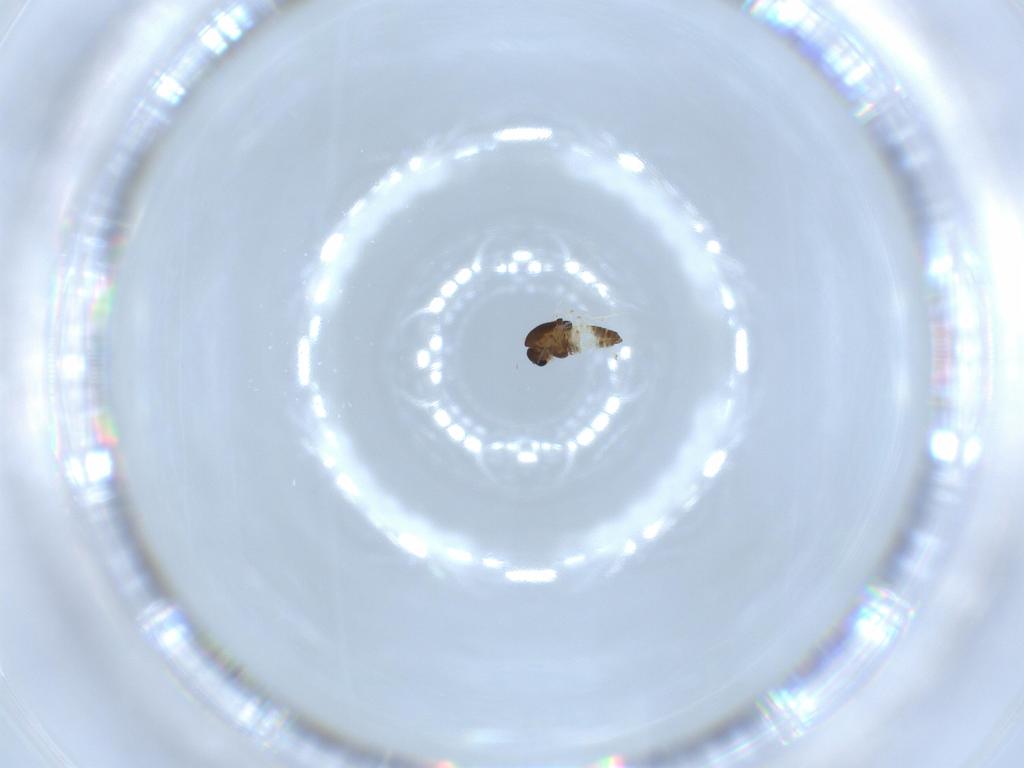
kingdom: Animalia
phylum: Arthropoda
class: Insecta
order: Diptera
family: Chironomidae
